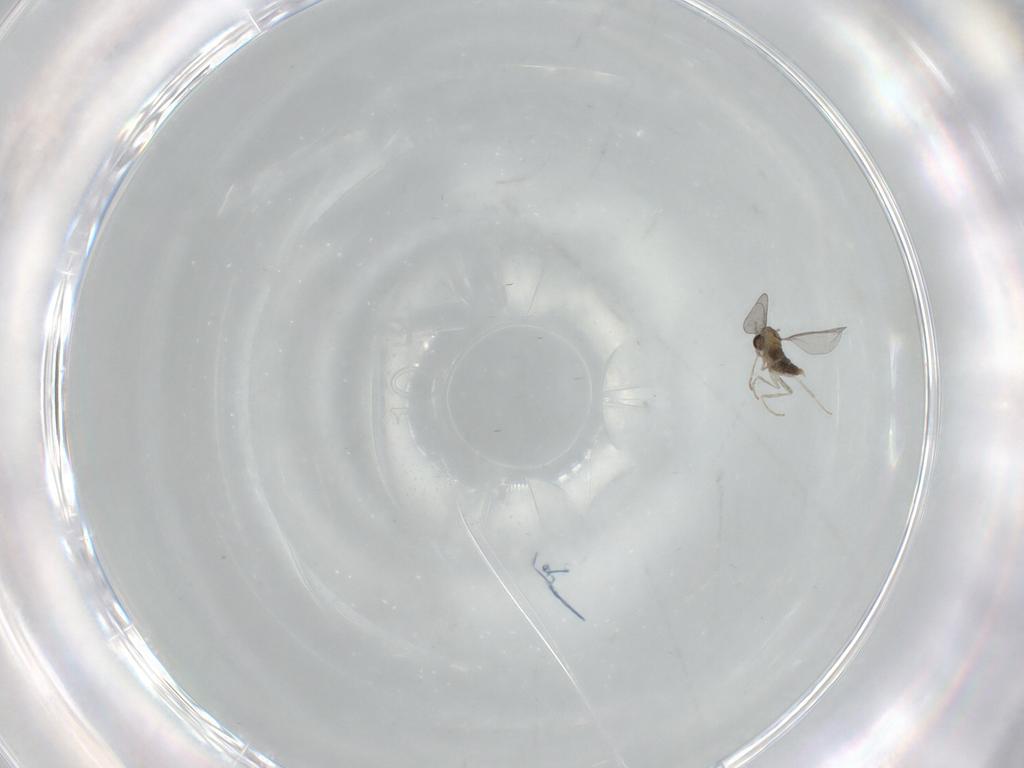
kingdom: Animalia
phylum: Arthropoda
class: Insecta
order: Diptera
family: Cecidomyiidae
